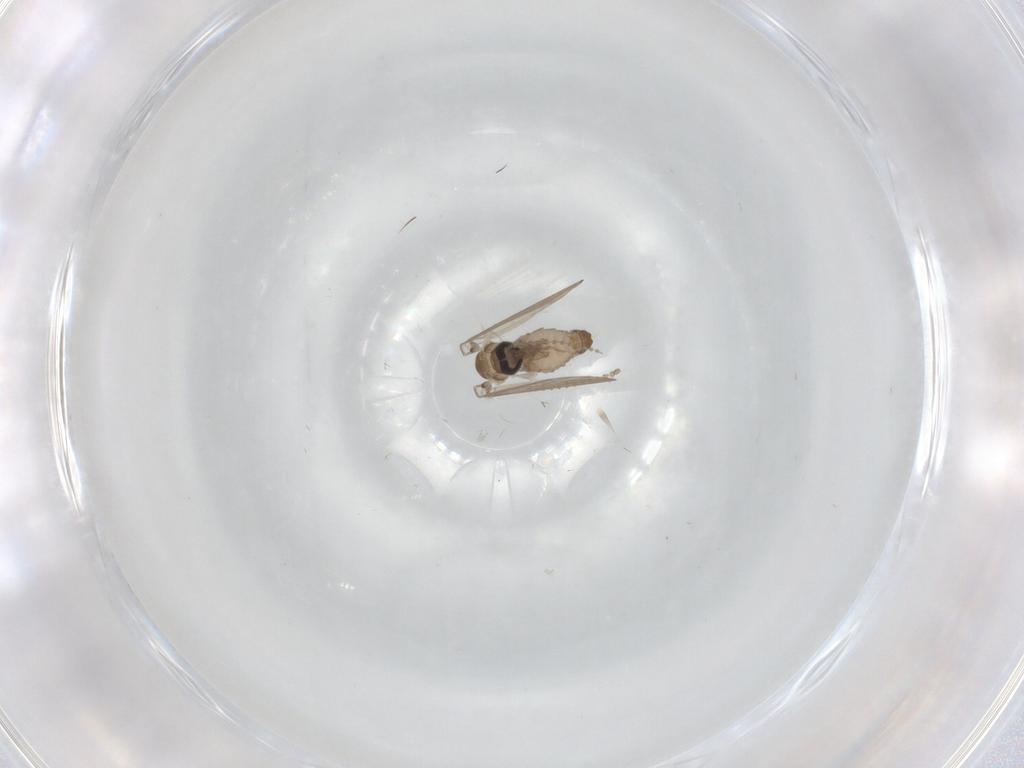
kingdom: Animalia
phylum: Arthropoda
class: Insecta
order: Diptera
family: Psychodidae
